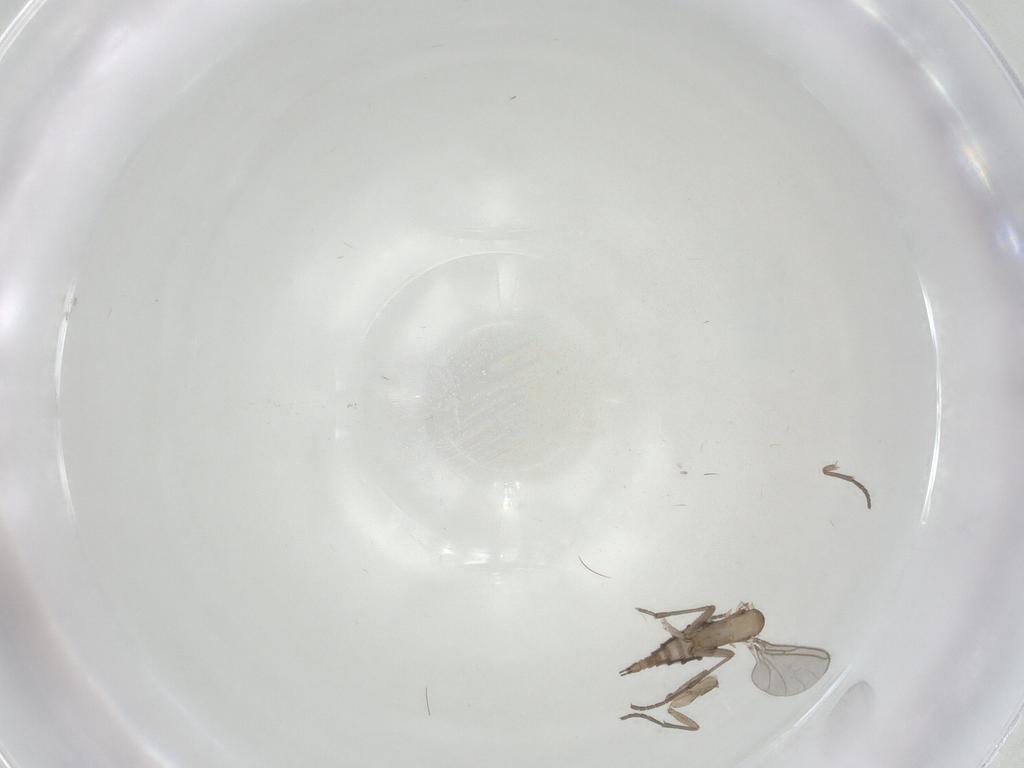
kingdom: Animalia
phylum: Arthropoda
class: Insecta
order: Diptera
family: Sciaridae
